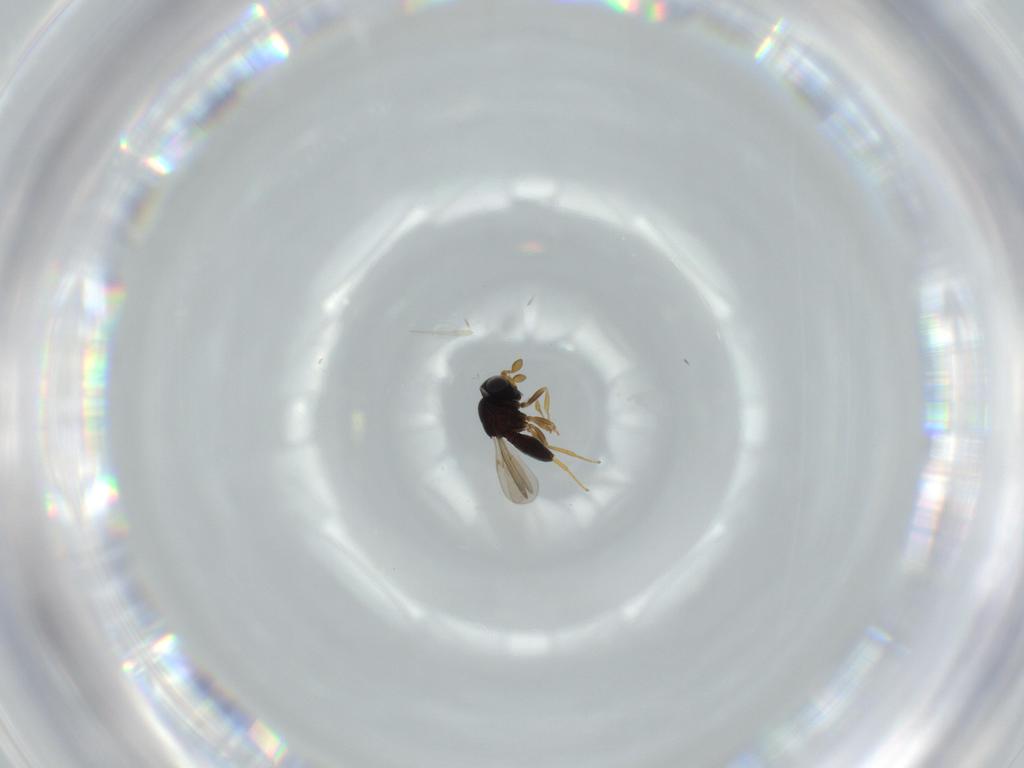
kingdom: Animalia
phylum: Arthropoda
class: Insecta
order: Hymenoptera
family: Scelionidae
